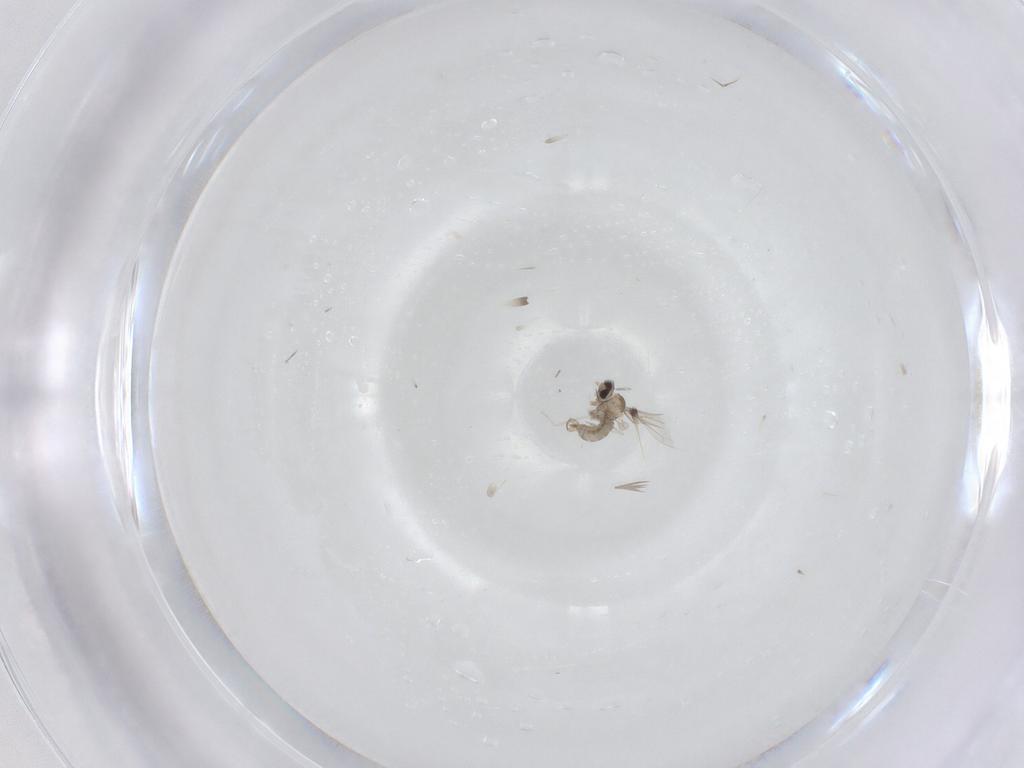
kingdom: Animalia
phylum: Arthropoda
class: Insecta
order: Diptera
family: Cecidomyiidae
